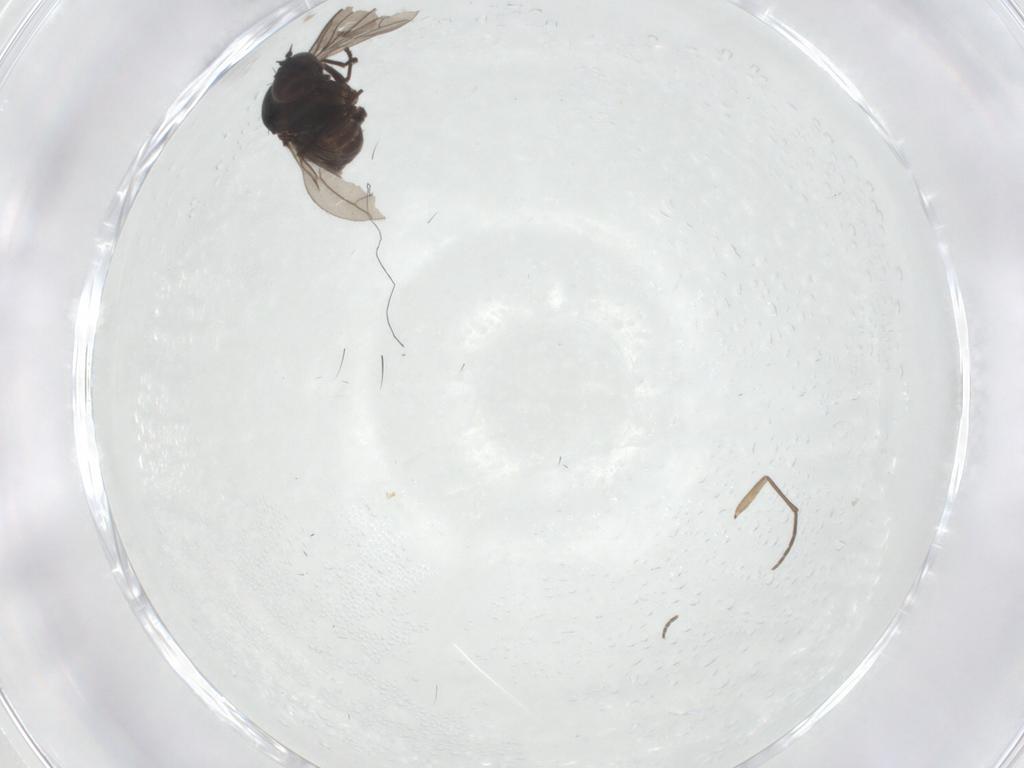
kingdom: Animalia
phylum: Arthropoda
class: Insecta
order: Diptera
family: Dolichopodidae
